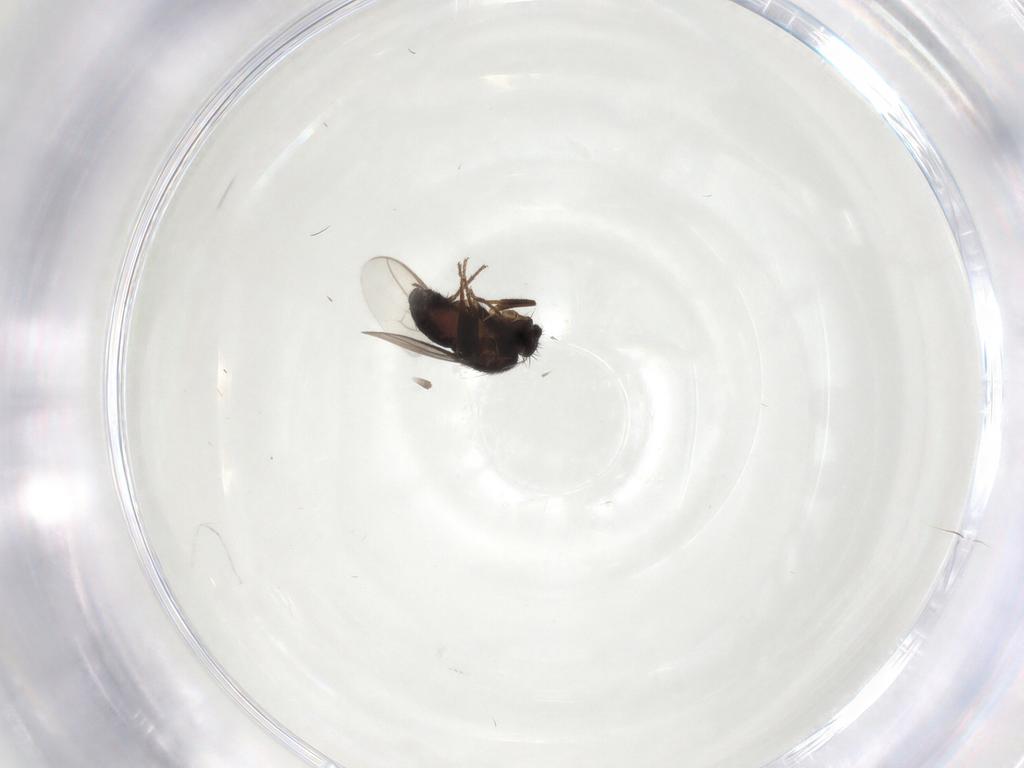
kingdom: Animalia
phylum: Arthropoda
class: Insecta
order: Diptera
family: Sphaeroceridae
